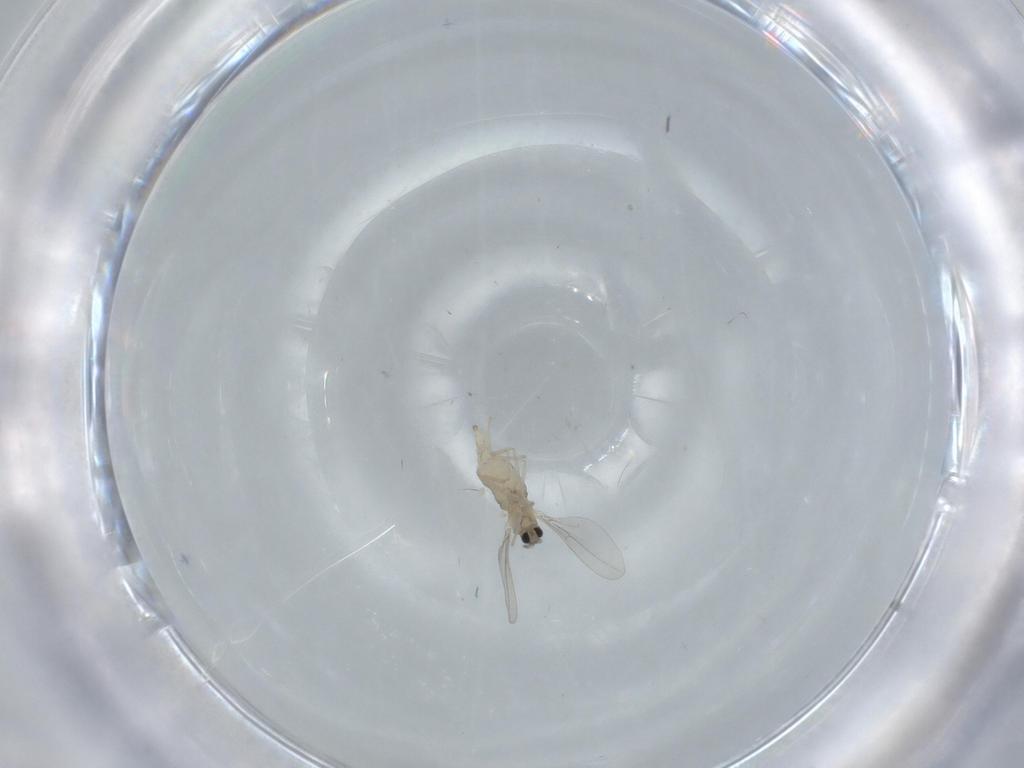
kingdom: Animalia
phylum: Arthropoda
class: Insecta
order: Diptera
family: Cecidomyiidae
